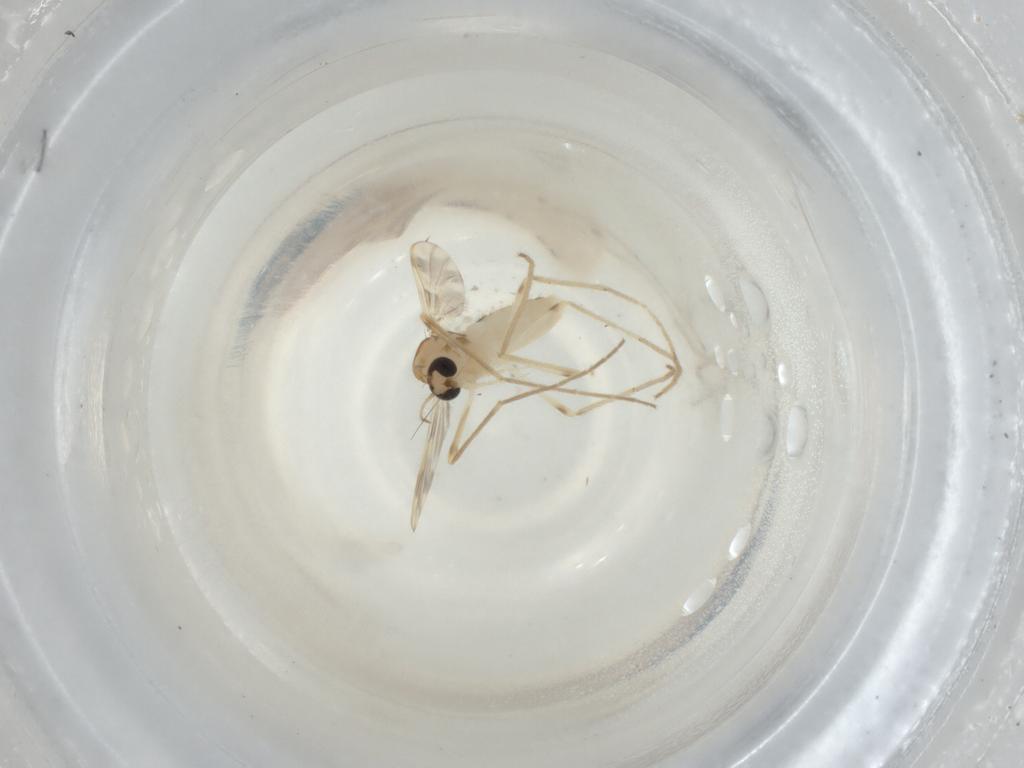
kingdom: Animalia
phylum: Arthropoda
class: Insecta
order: Diptera
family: Chironomidae
